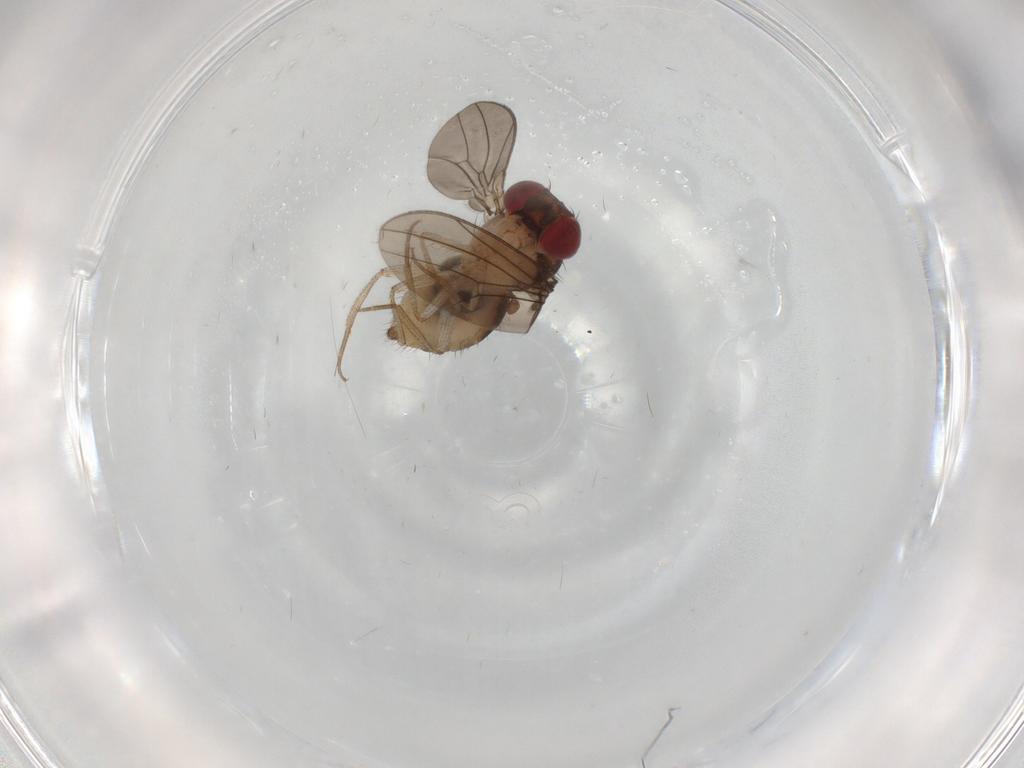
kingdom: Animalia
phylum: Arthropoda
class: Insecta
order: Diptera
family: Drosophilidae
